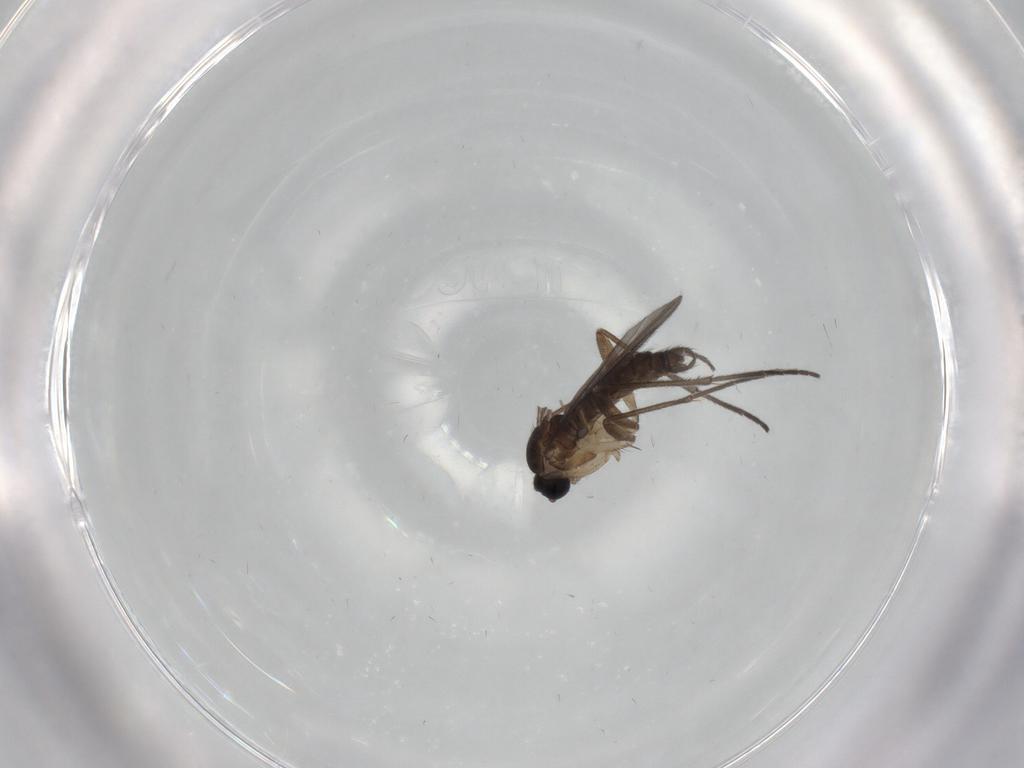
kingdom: Animalia
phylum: Arthropoda
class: Insecta
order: Diptera
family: Sciaridae
